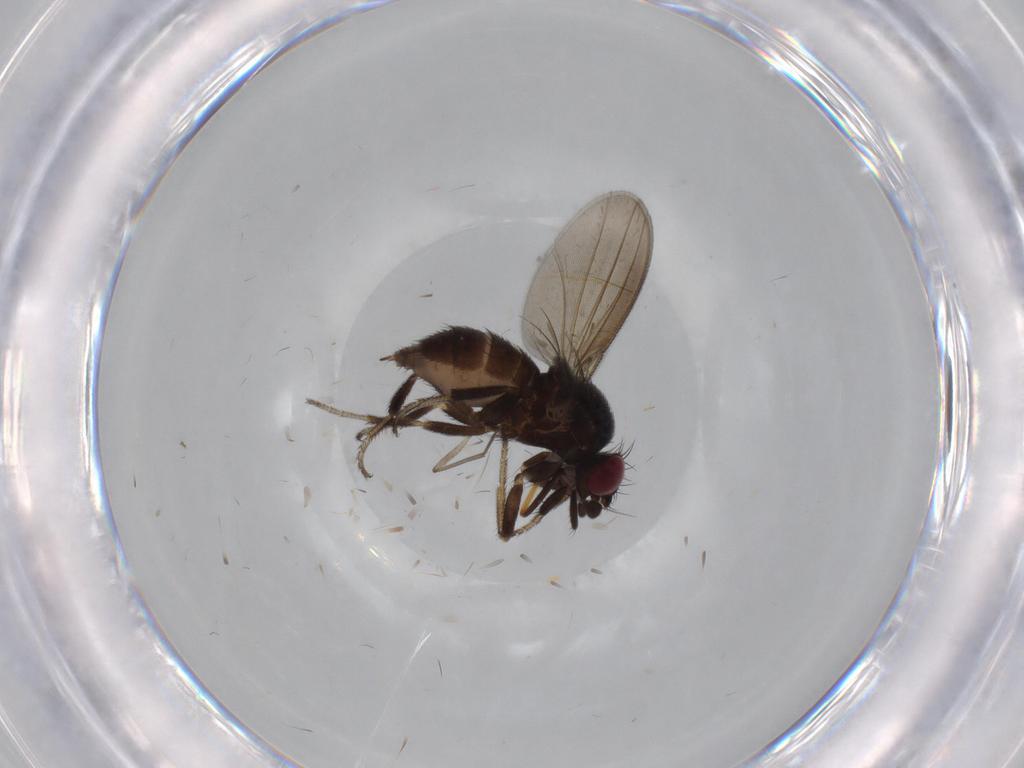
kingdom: Animalia
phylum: Arthropoda
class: Insecta
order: Diptera
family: Milichiidae
